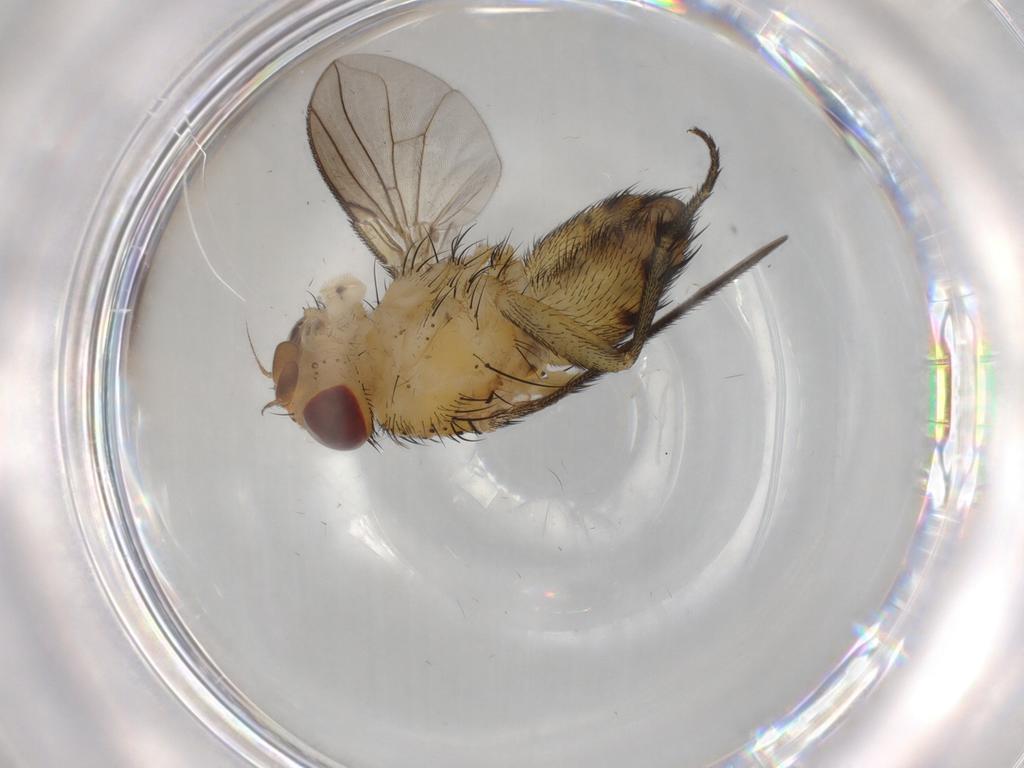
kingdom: Animalia
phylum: Arthropoda
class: Insecta
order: Diptera
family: Tachinidae
